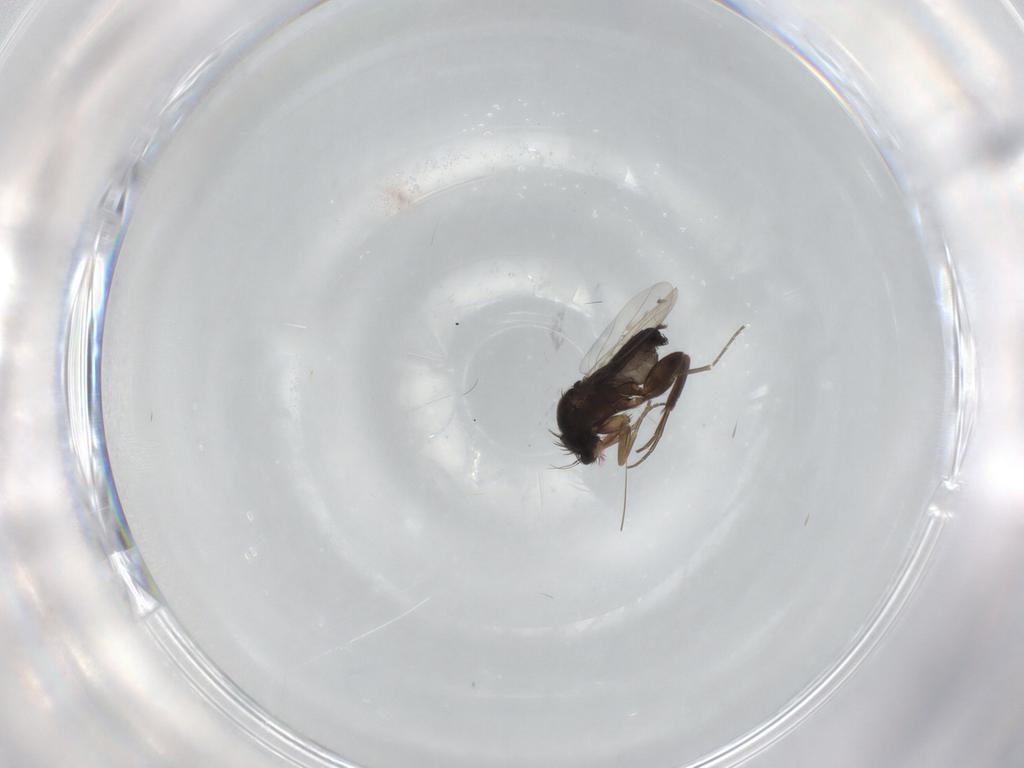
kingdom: Animalia
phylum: Arthropoda
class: Insecta
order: Diptera
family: Phoridae
